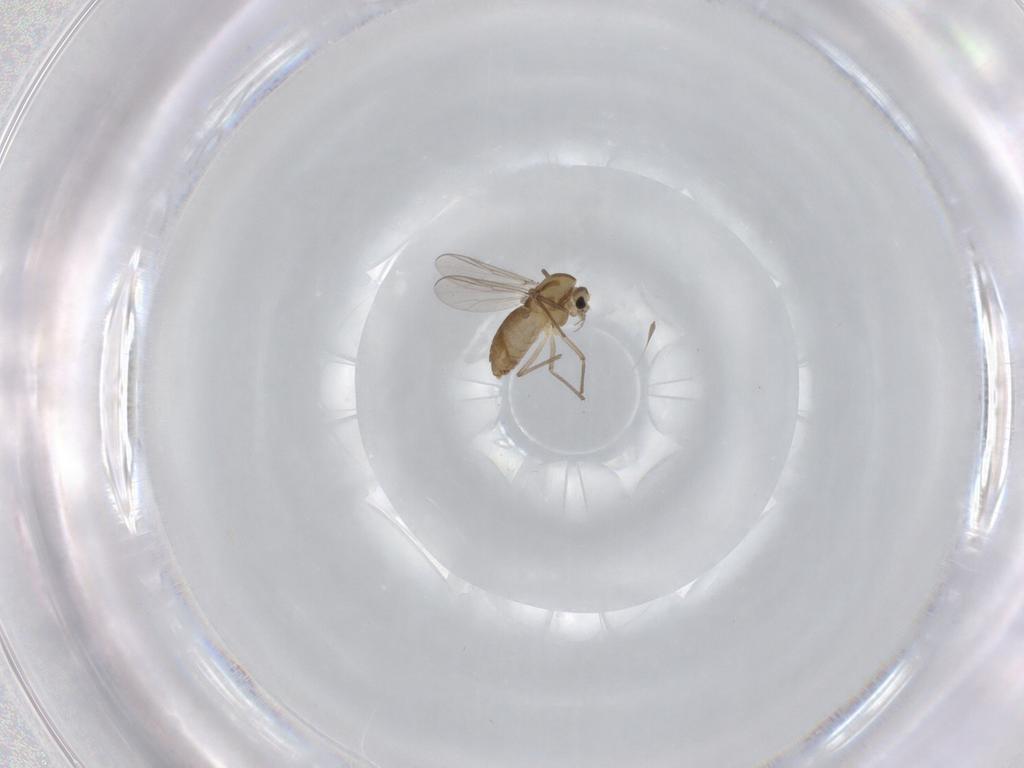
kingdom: Animalia
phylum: Arthropoda
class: Insecta
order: Diptera
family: Chironomidae
